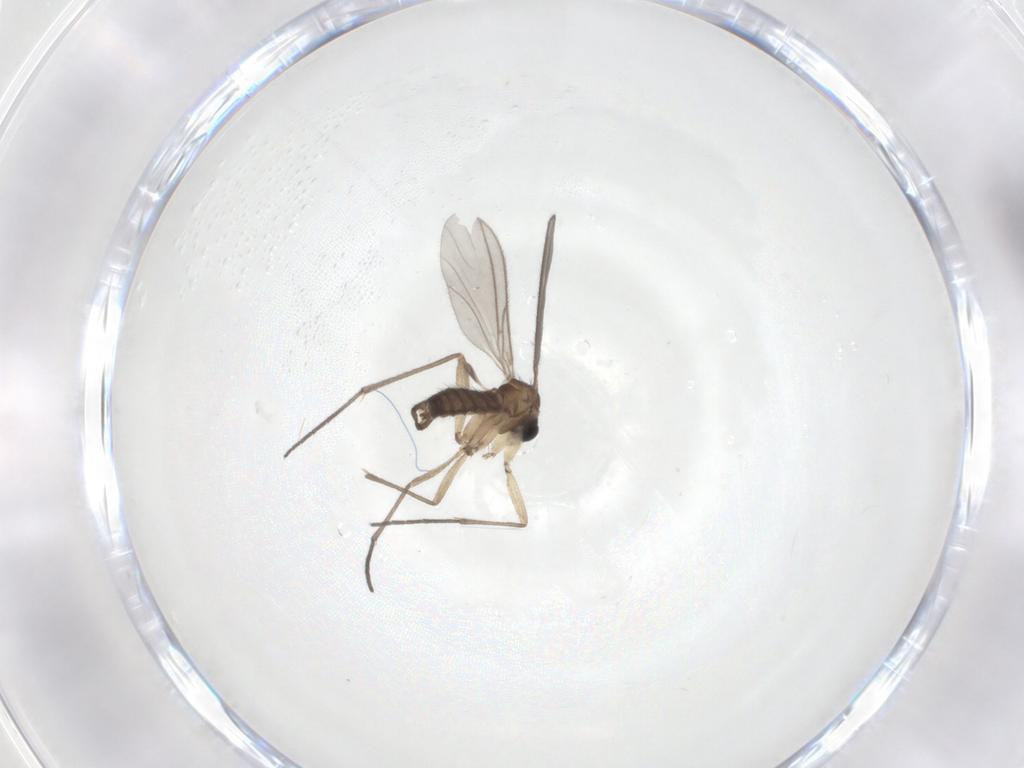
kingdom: Animalia
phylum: Arthropoda
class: Insecta
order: Diptera
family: Sciaridae
